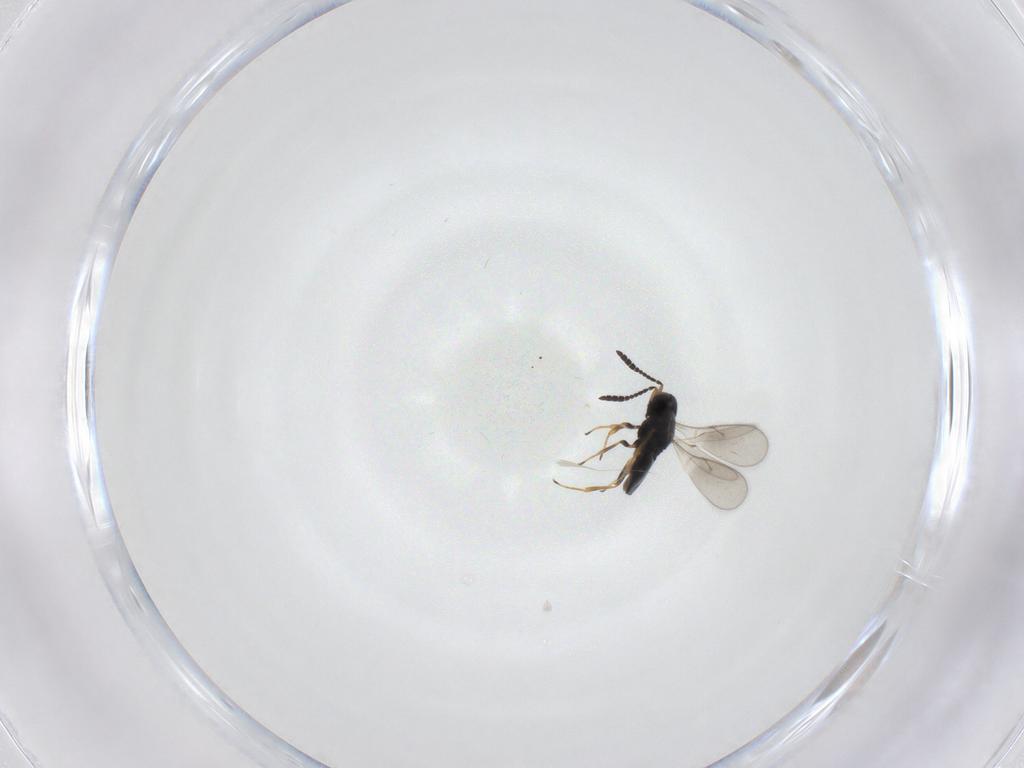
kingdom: Animalia
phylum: Arthropoda
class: Insecta
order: Hymenoptera
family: Scelionidae
